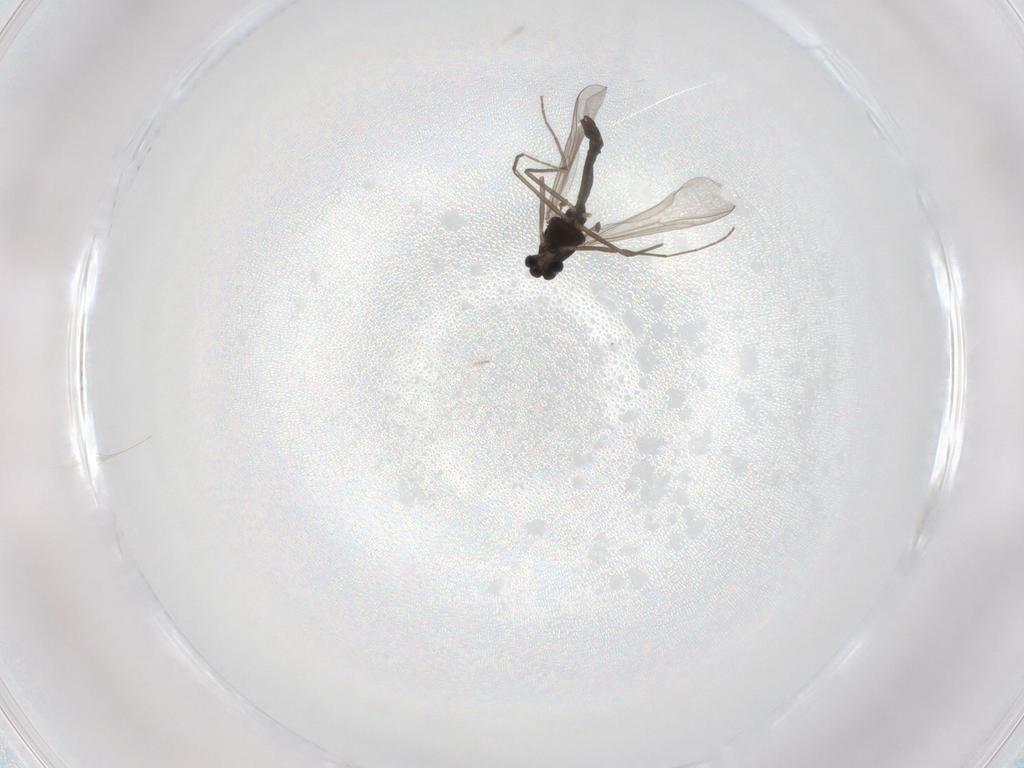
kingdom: Animalia
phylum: Arthropoda
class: Insecta
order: Diptera
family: Chironomidae
